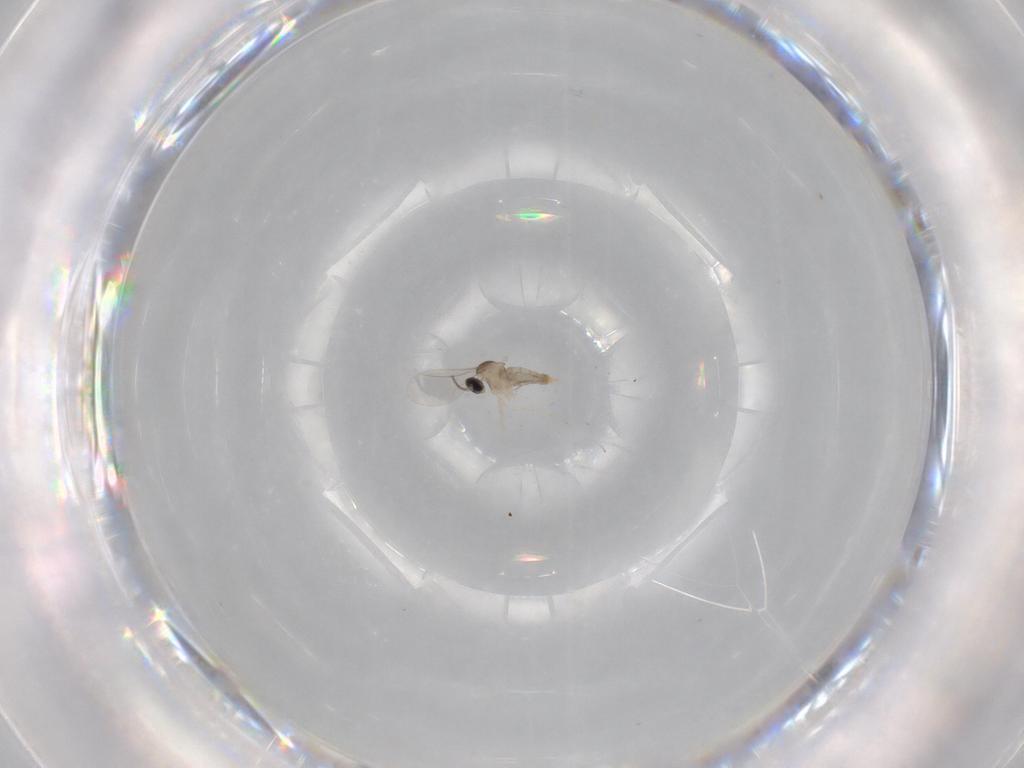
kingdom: Animalia
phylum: Arthropoda
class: Insecta
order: Diptera
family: Cecidomyiidae
